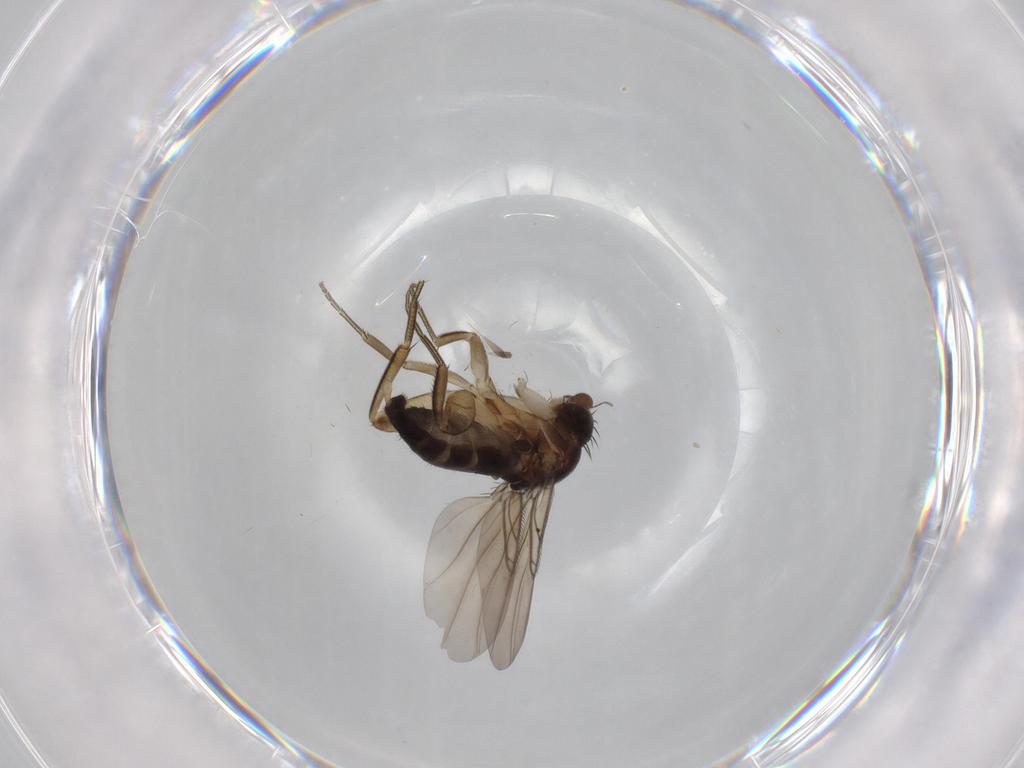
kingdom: Animalia
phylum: Arthropoda
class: Insecta
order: Diptera
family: Phoridae
